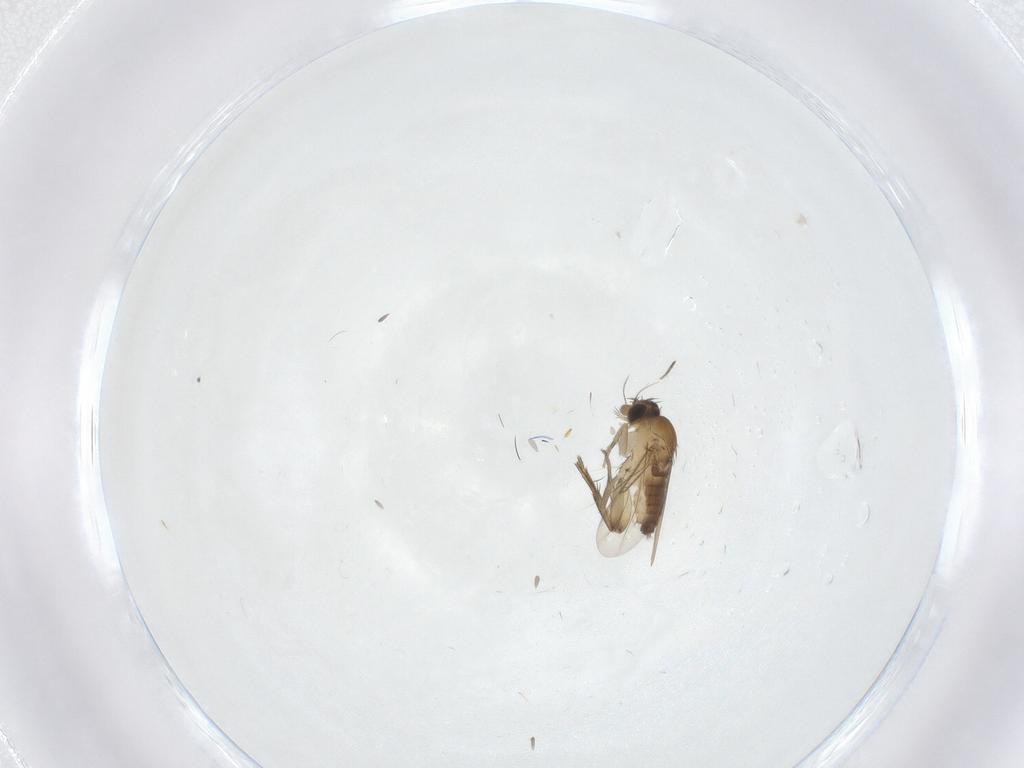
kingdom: Animalia
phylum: Arthropoda
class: Insecta
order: Diptera
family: Phoridae
